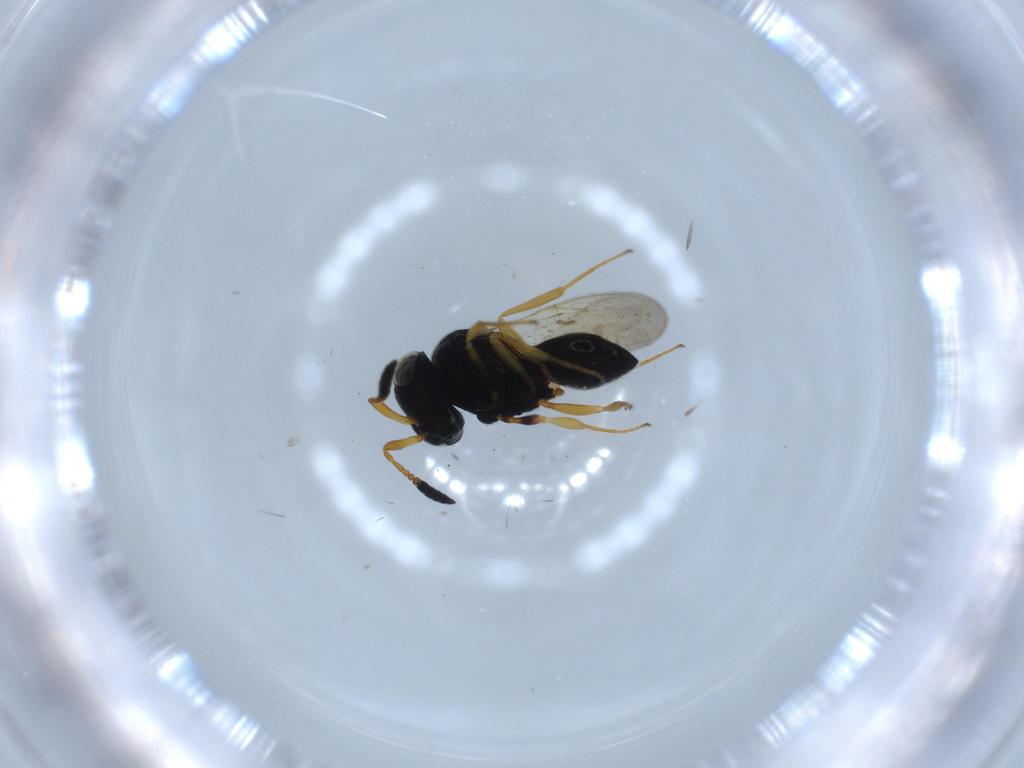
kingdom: Animalia
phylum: Arthropoda
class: Insecta
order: Hymenoptera
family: Scelionidae
